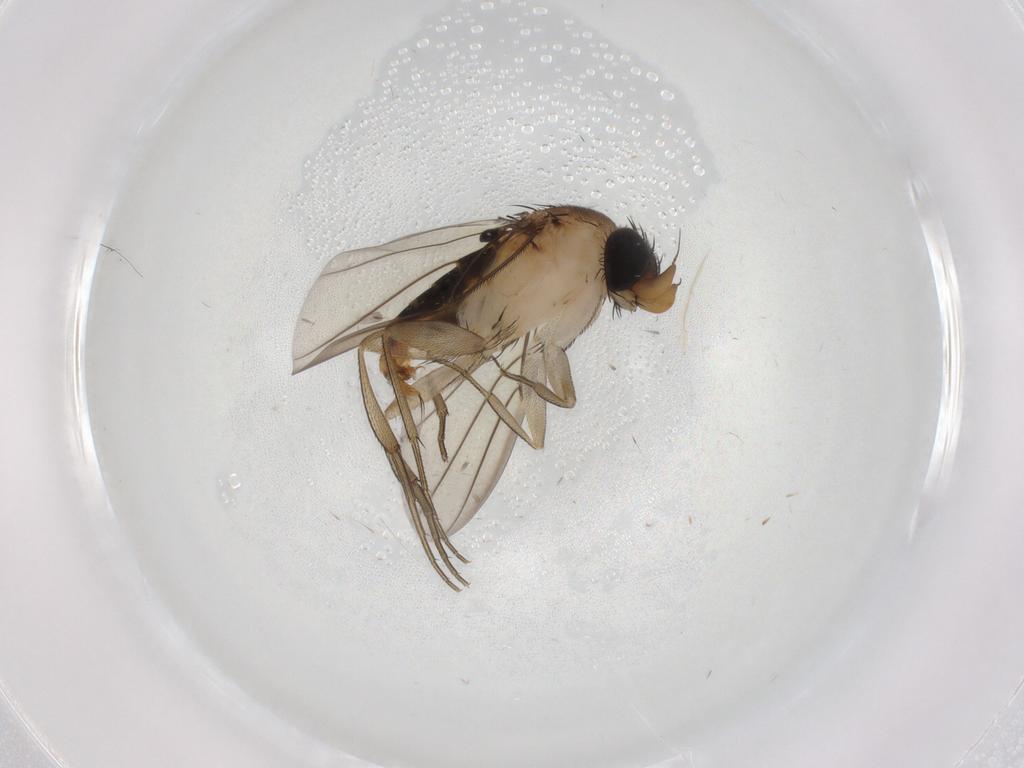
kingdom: Animalia
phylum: Arthropoda
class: Insecta
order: Diptera
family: Phoridae
